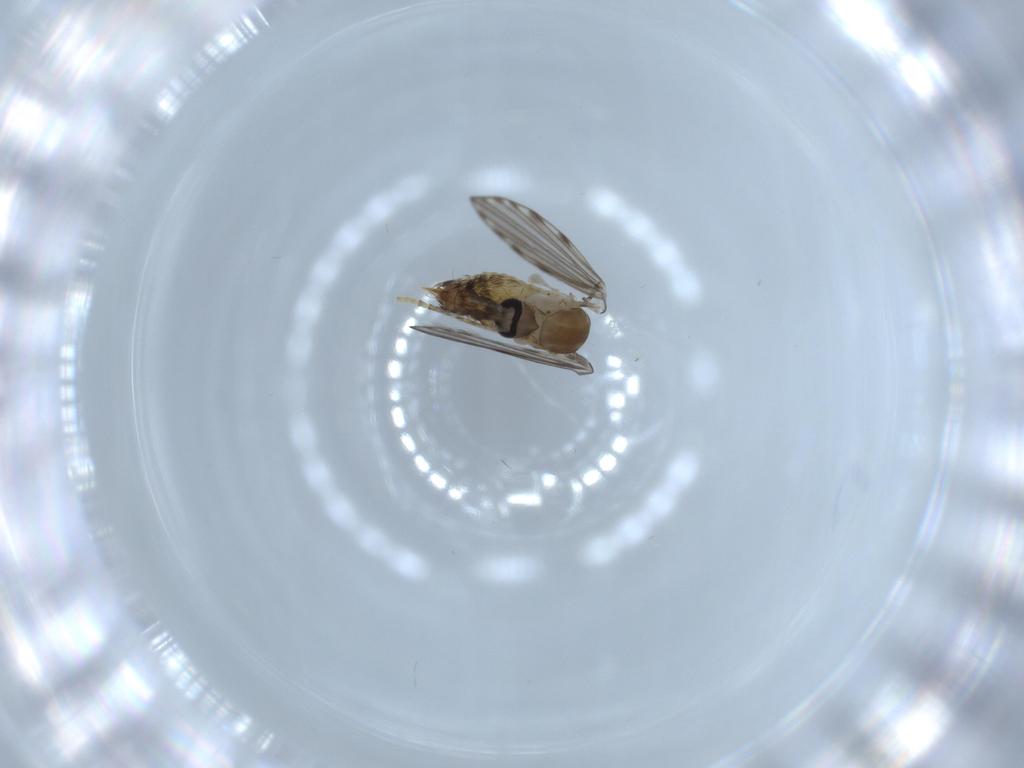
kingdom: Animalia
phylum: Arthropoda
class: Insecta
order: Diptera
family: Psychodidae
